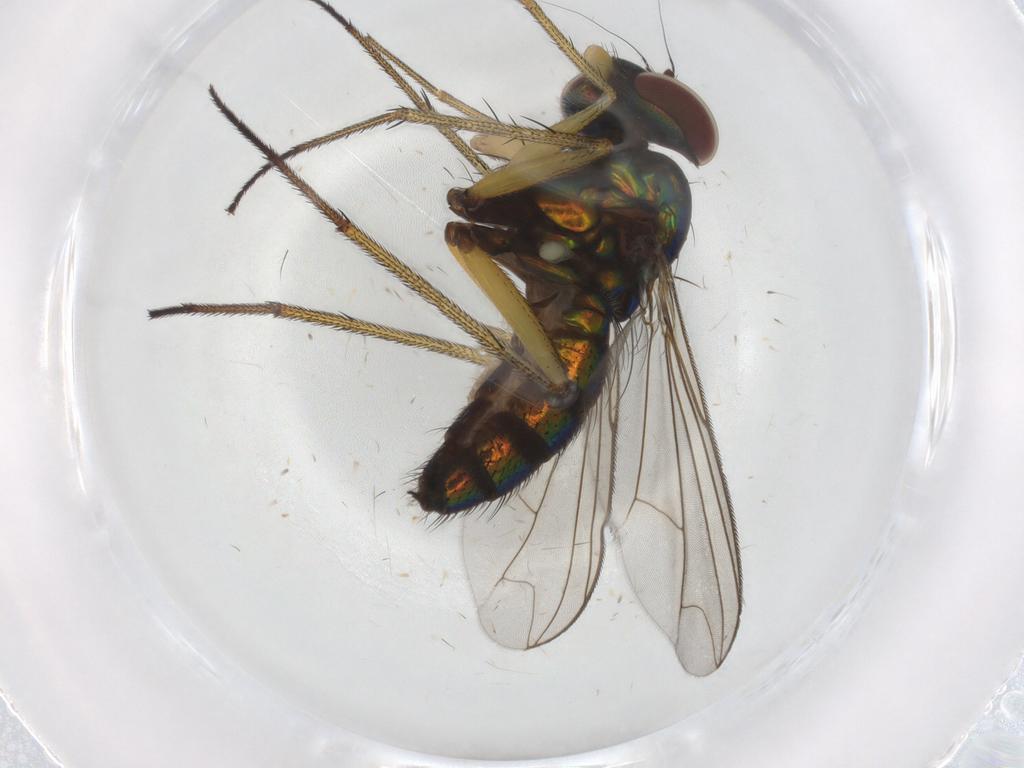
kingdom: Animalia
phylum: Arthropoda
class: Insecta
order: Diptera
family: Dolichopodidae
